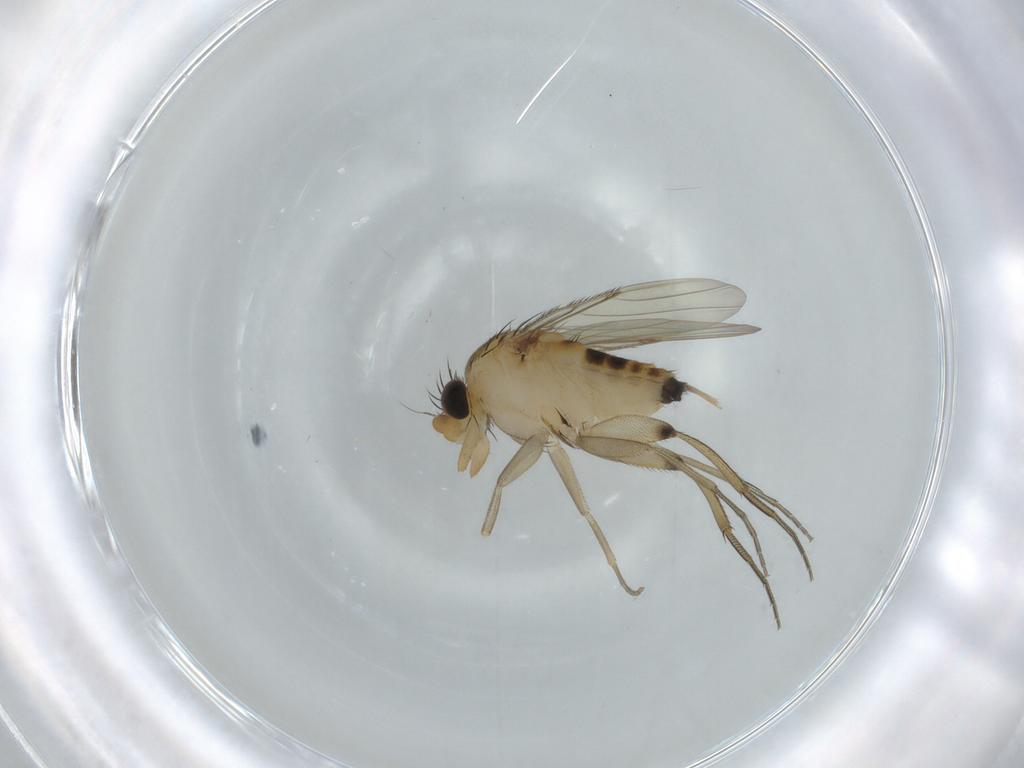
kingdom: Animalia
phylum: Arthropoda
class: Insecta
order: Diptera
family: Phoridae
